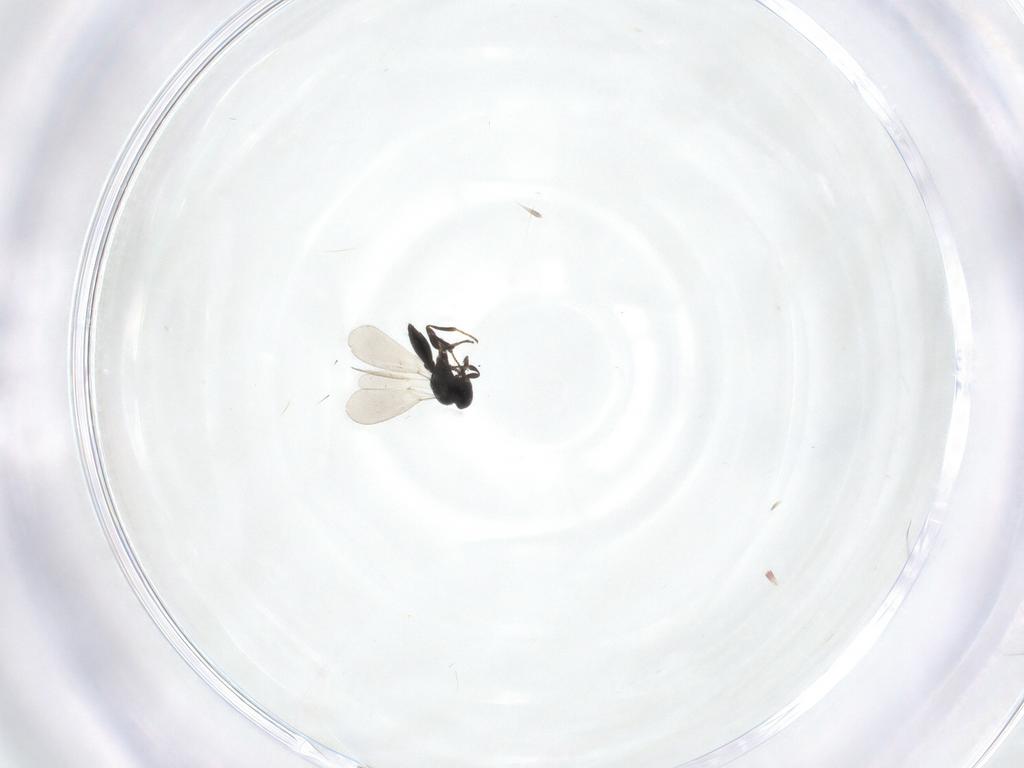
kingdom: Animalia
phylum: Arthropoda
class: Insecta
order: Hymenoptera
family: Platygastridae
